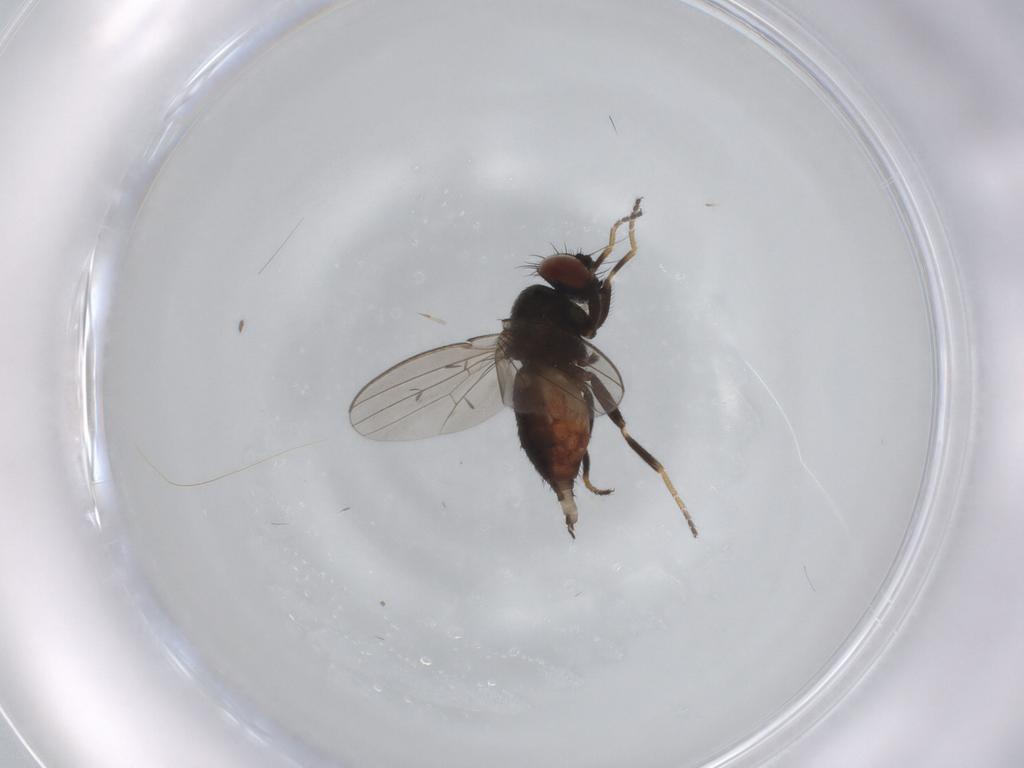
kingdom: Animalia
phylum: Arthropoda
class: Insecta
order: Diptera
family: Milichiidae
